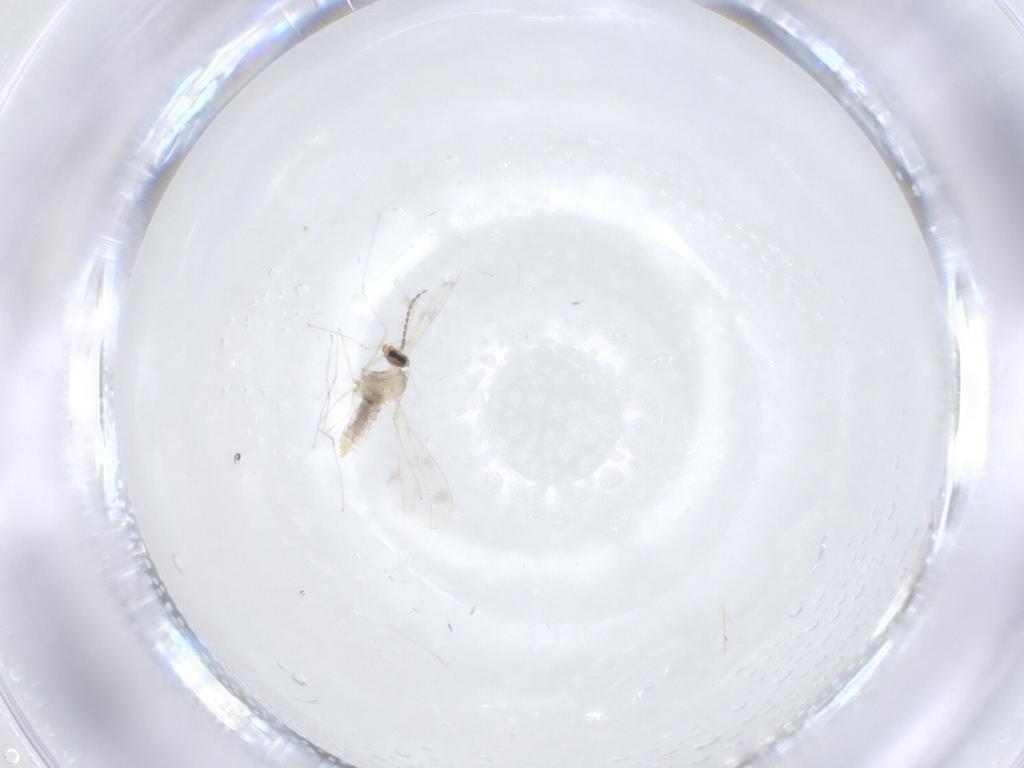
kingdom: Animalia
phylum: Arthropoda
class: Insecta
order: Diptera
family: Cecidomyiidae
